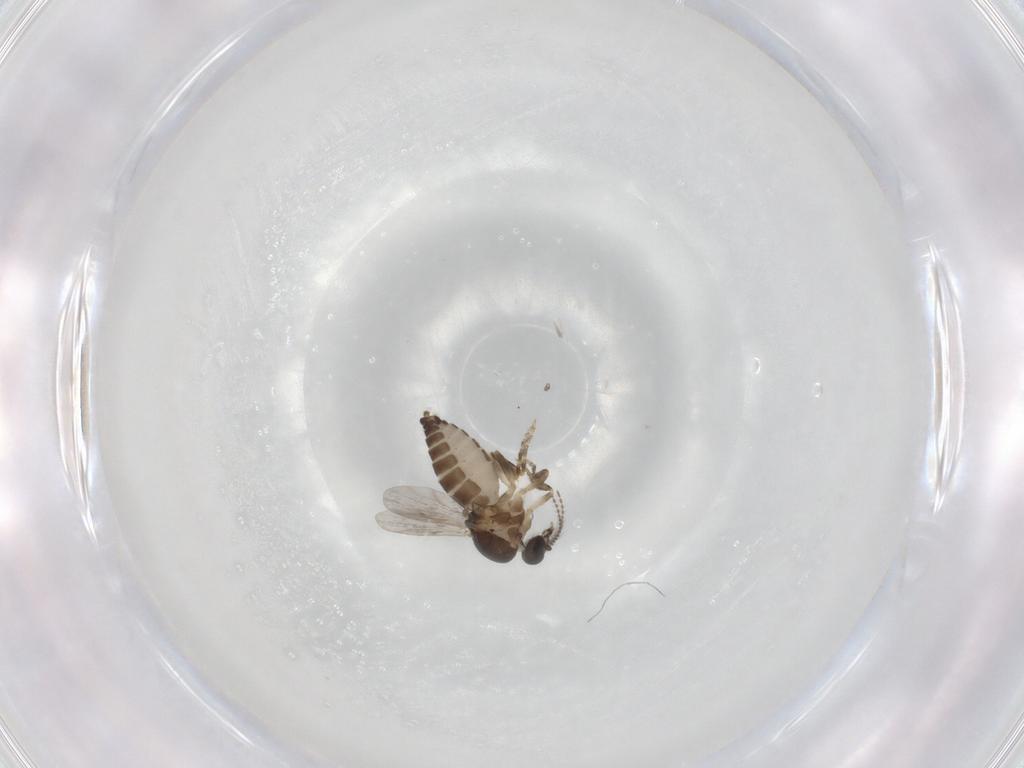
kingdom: Animalia
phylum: Arthropoda
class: Insecta
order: Diptera
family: Ceratopogonidae
